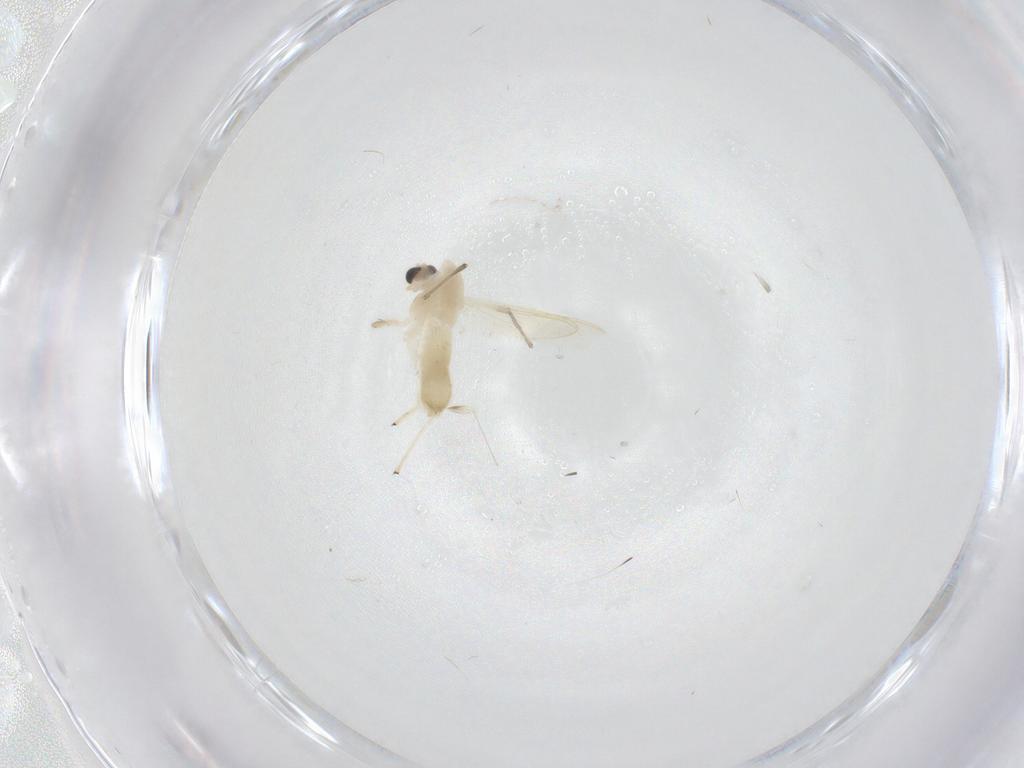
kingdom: Animalia
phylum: Arthropoda
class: Insecta
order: Diptera
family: Chironomidae
